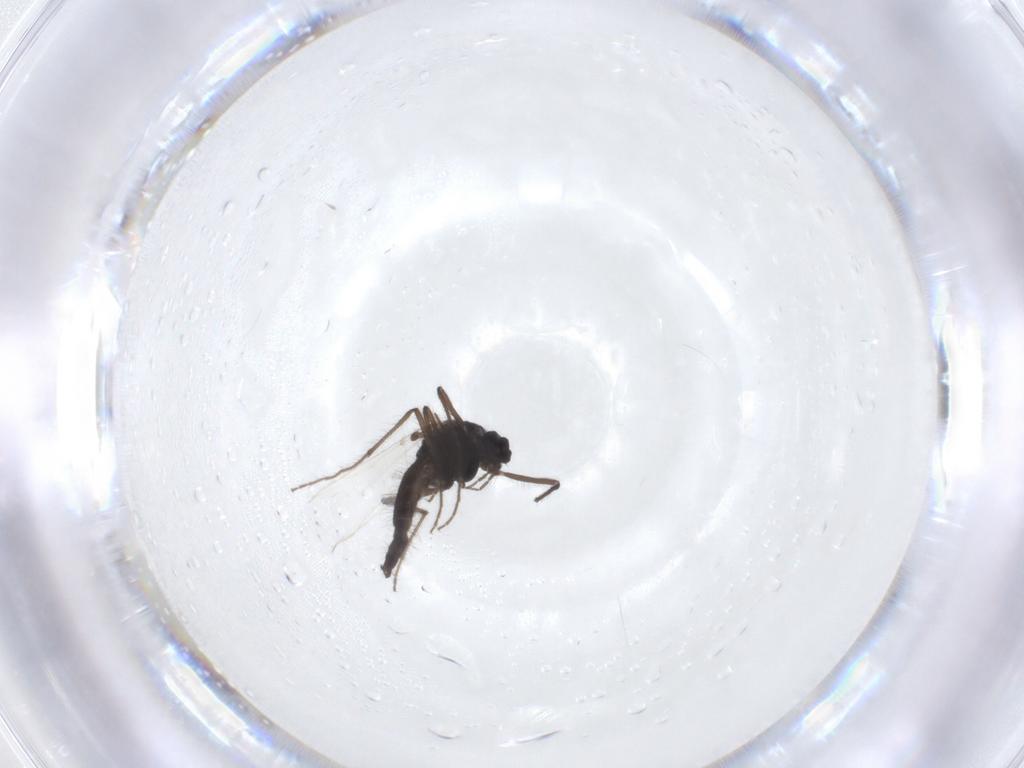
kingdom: Animalia
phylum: Arthropoda
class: Insecta
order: Diptera
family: Chironomidae
